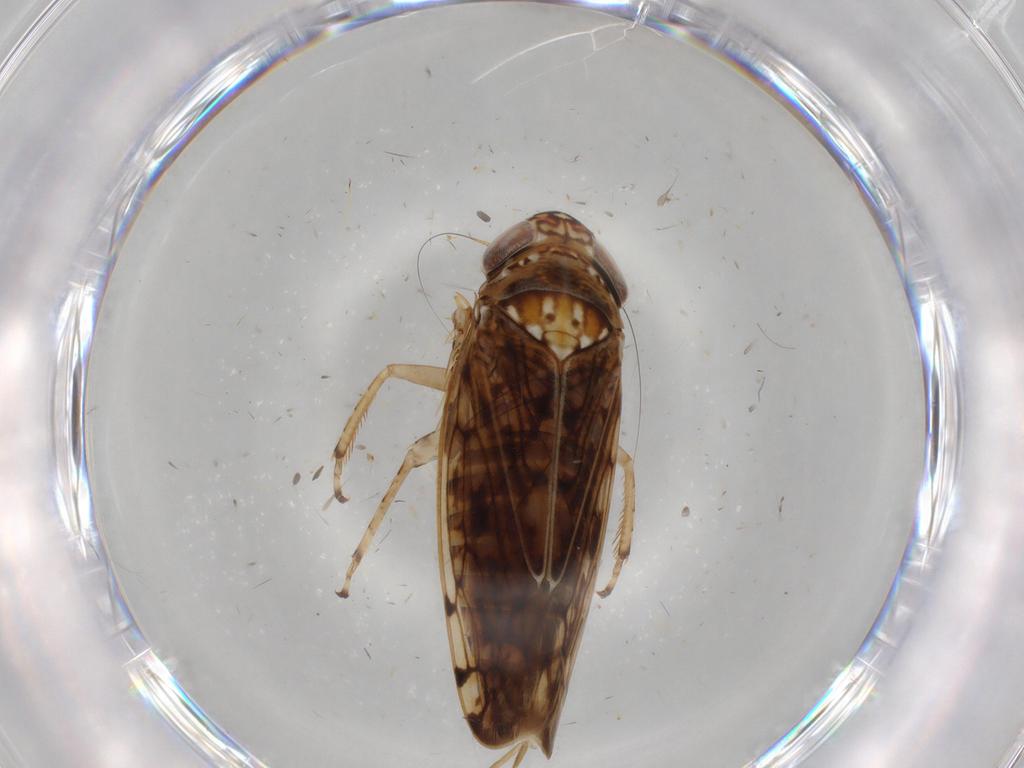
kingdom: Animalia
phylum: Arthropoda
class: Insecta
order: Hemiptera
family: Cicadellidae
